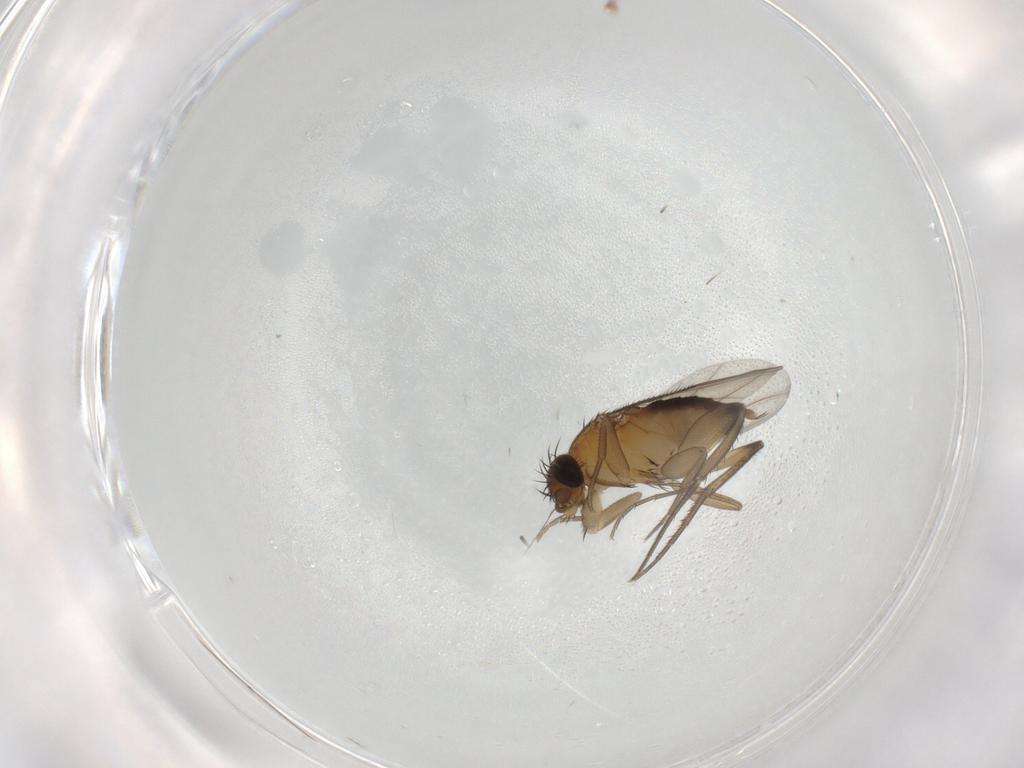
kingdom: Animalia
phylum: Arthropoda
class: Insecta
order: Diptera
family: Phoridae
